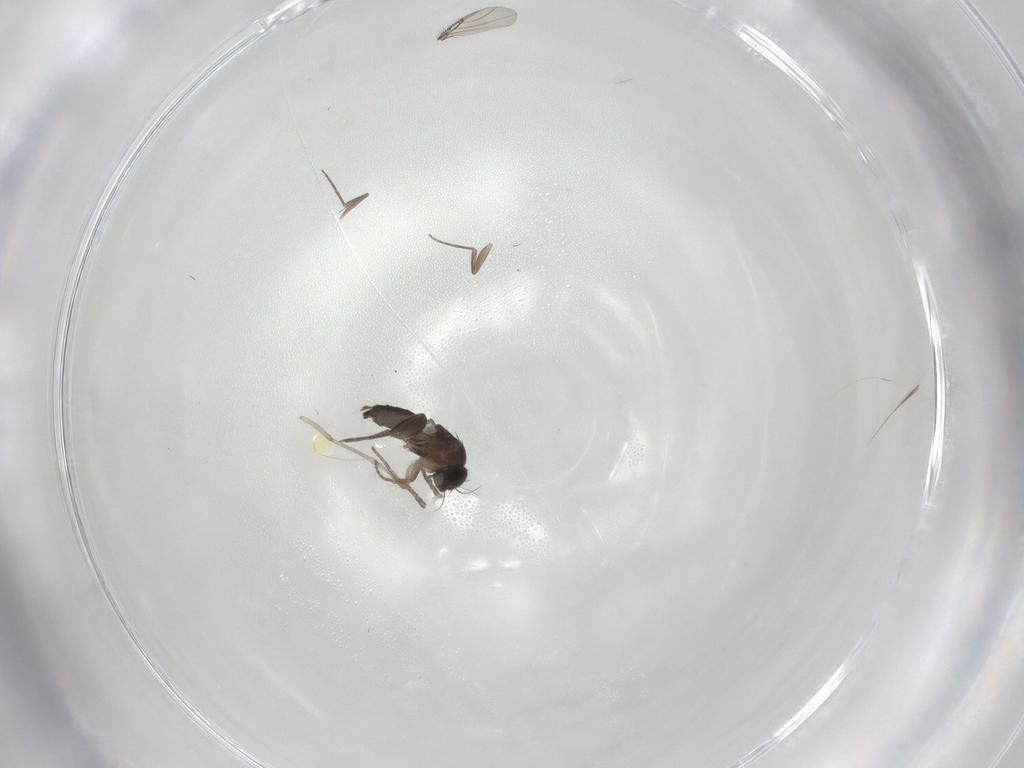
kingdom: Animalia
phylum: Arthropoda
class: Insecta
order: Diptera
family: Phoridae
